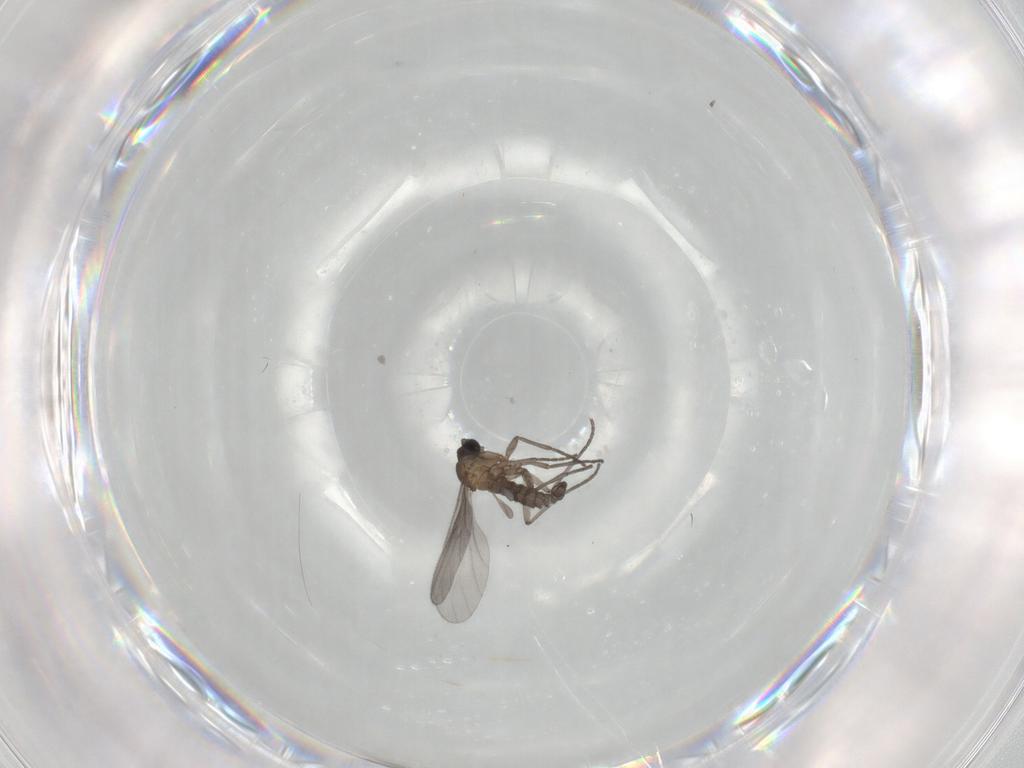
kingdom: Animalia
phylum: Arthropoda
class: Insecta
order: Diptera
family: Sciaridae
